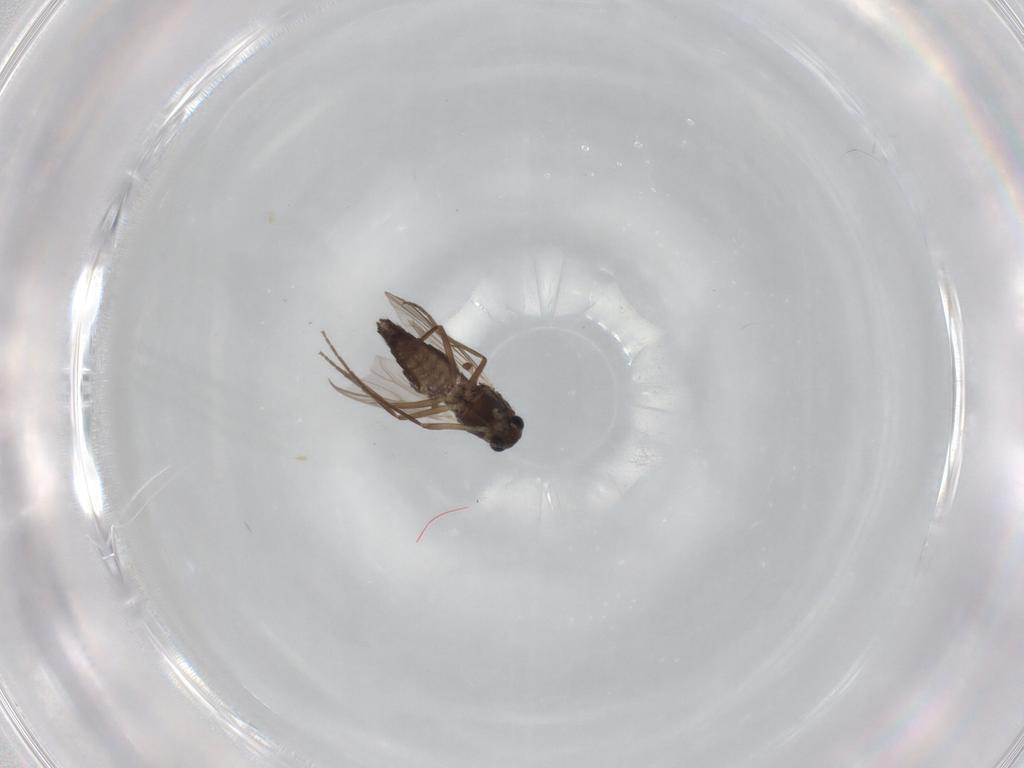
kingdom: Animalia
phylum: Arthropoda
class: Insecta
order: Diptera
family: Chironomidae
